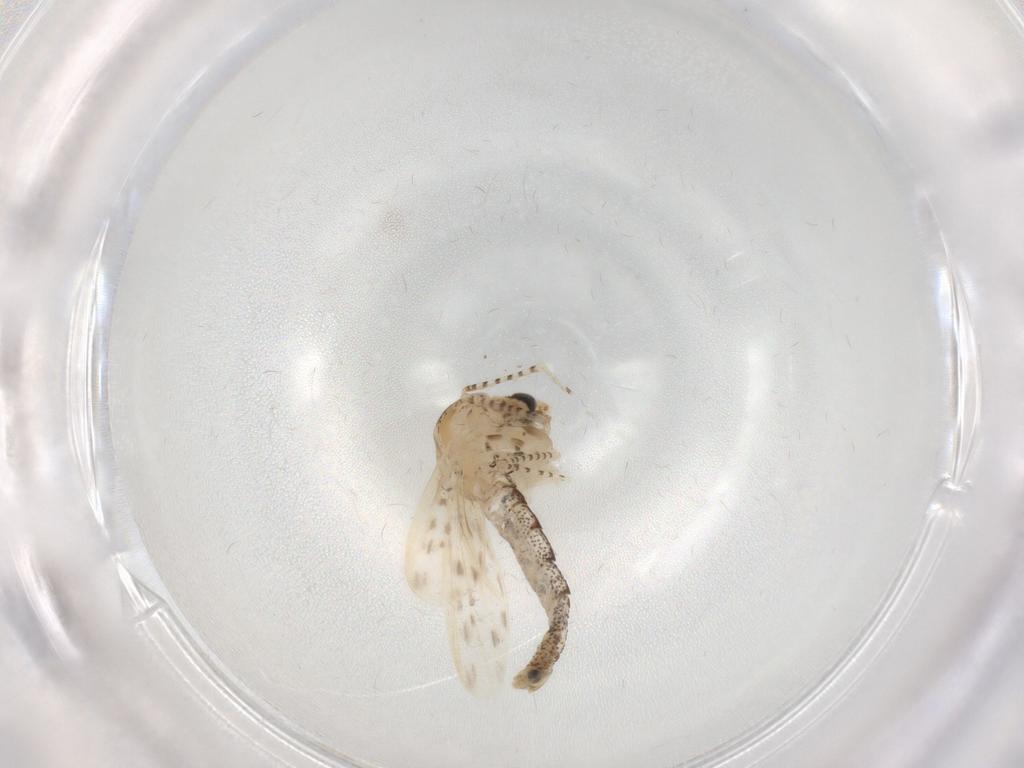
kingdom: Animalia
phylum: Arthropoda
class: Insecta
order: Diptera
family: Chaoboridae
